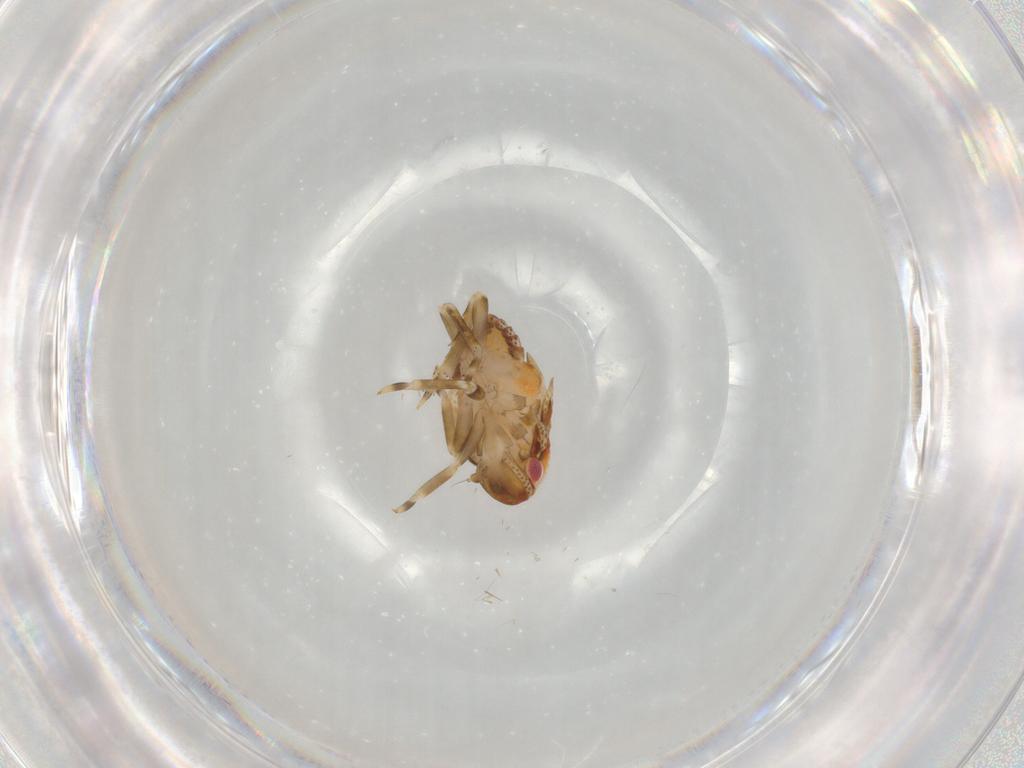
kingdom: Animalia
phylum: Arthropoda
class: Insecta
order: Hemiptera
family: Flatidae
